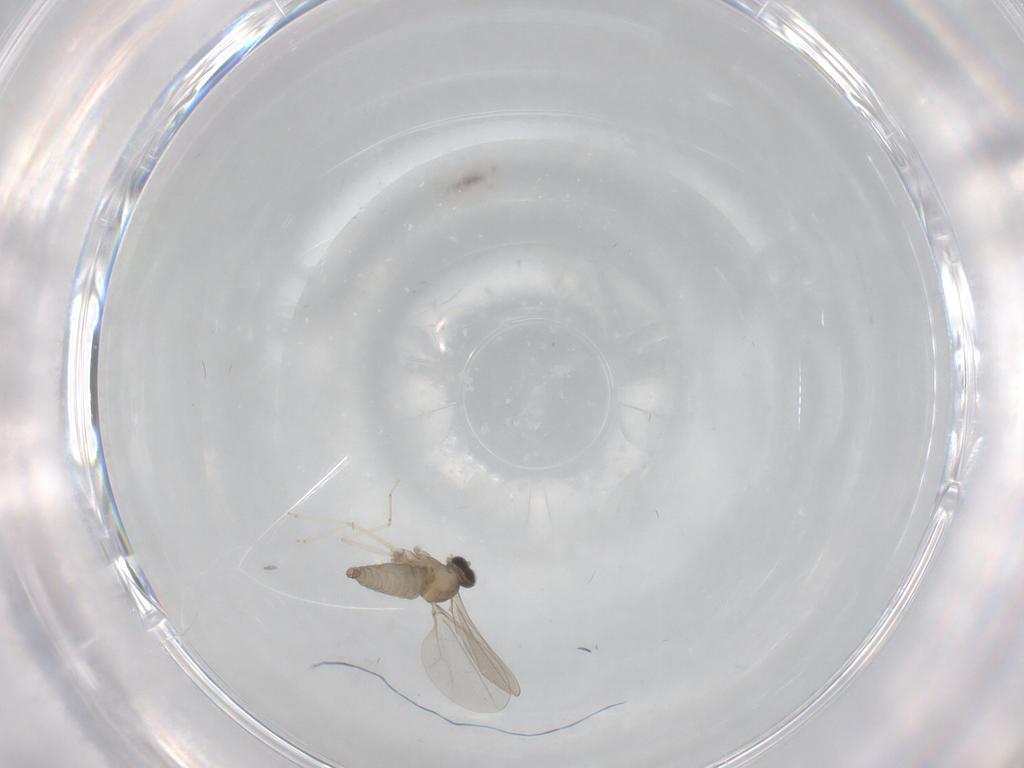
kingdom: Animalia
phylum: Arthropoda
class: Insecta
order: Diptera
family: Cecidomyiidae
